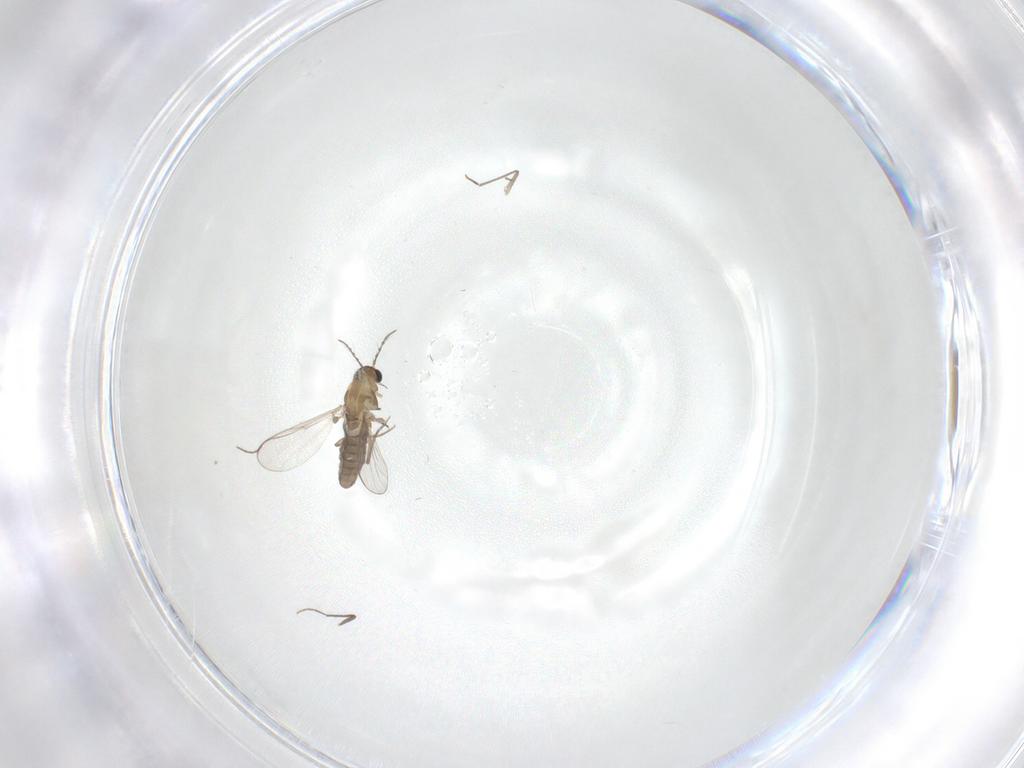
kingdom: Animalia
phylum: Arthropoda
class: Insecta
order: Diptera
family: Chironomidae
